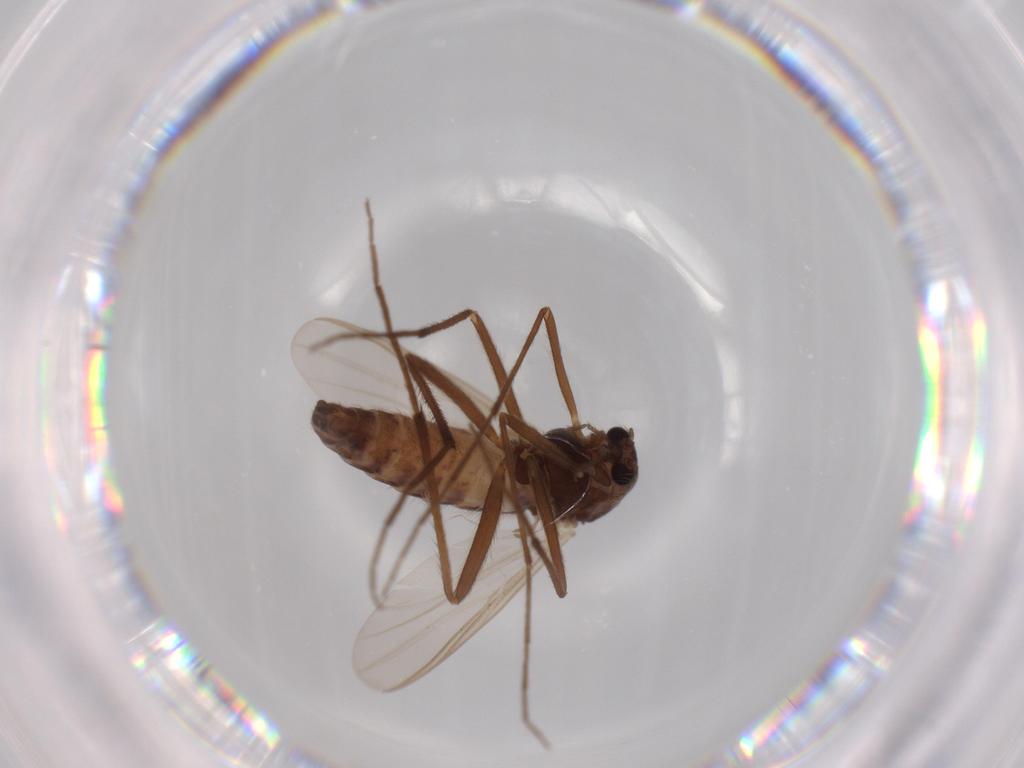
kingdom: Animalia
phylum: Arthropoda
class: Insecta
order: Diptera
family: Chironomidae
